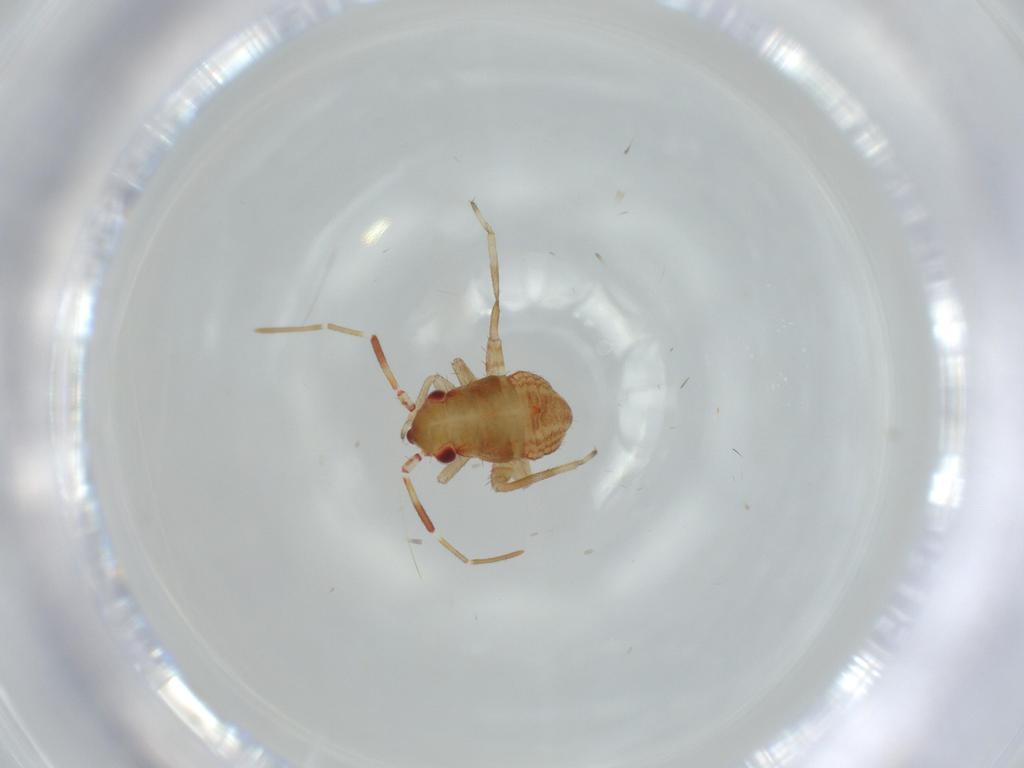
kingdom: Animalia
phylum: Arthropoda
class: Insecta
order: Hemiptera
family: Miridae
